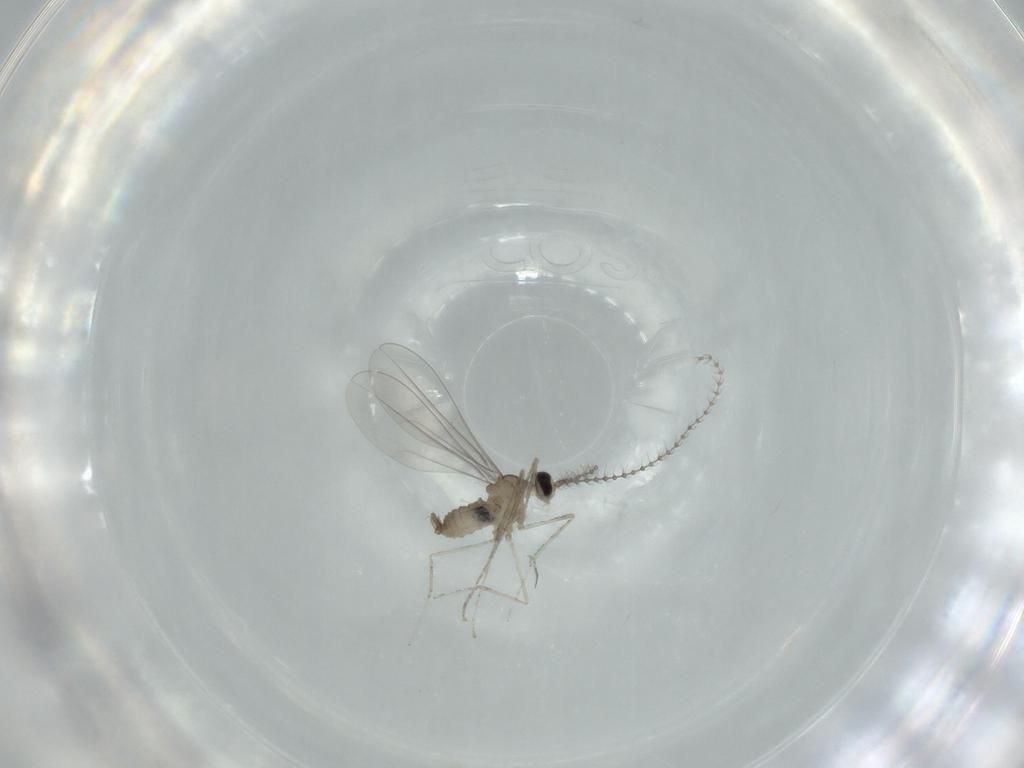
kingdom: Animalia
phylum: Arthropoda
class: Insecta
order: Diptera
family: Cecidomyiidae
